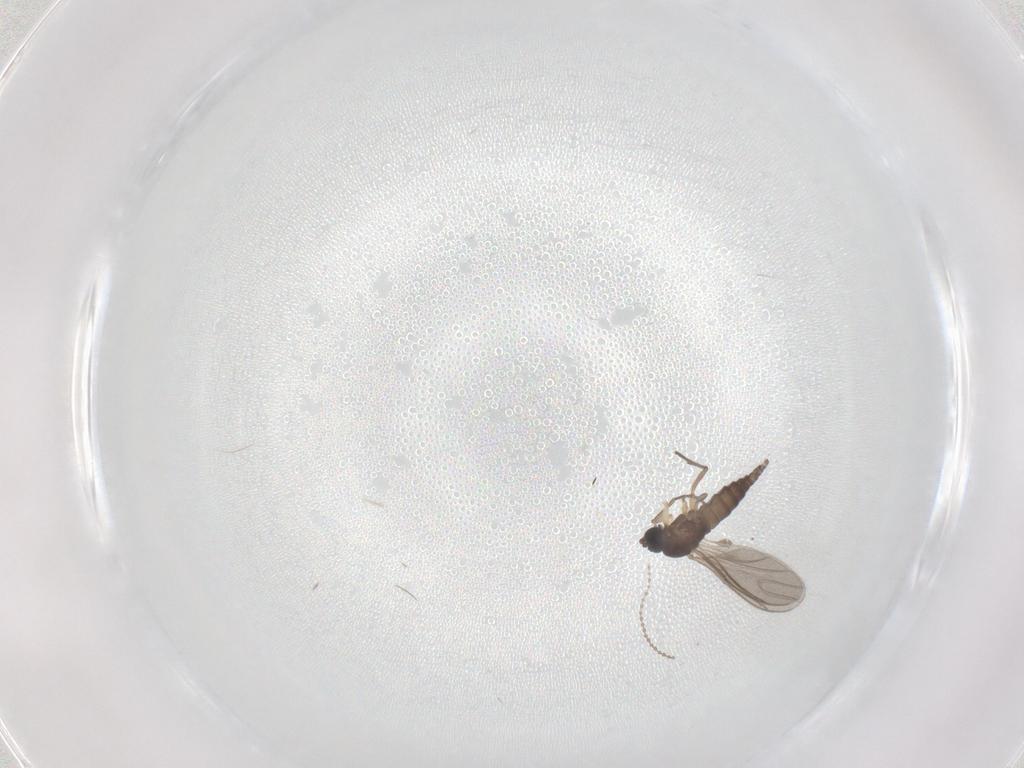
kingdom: Animalia
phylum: Arthropoda
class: Insecta
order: Diptera
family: Sciaridae
